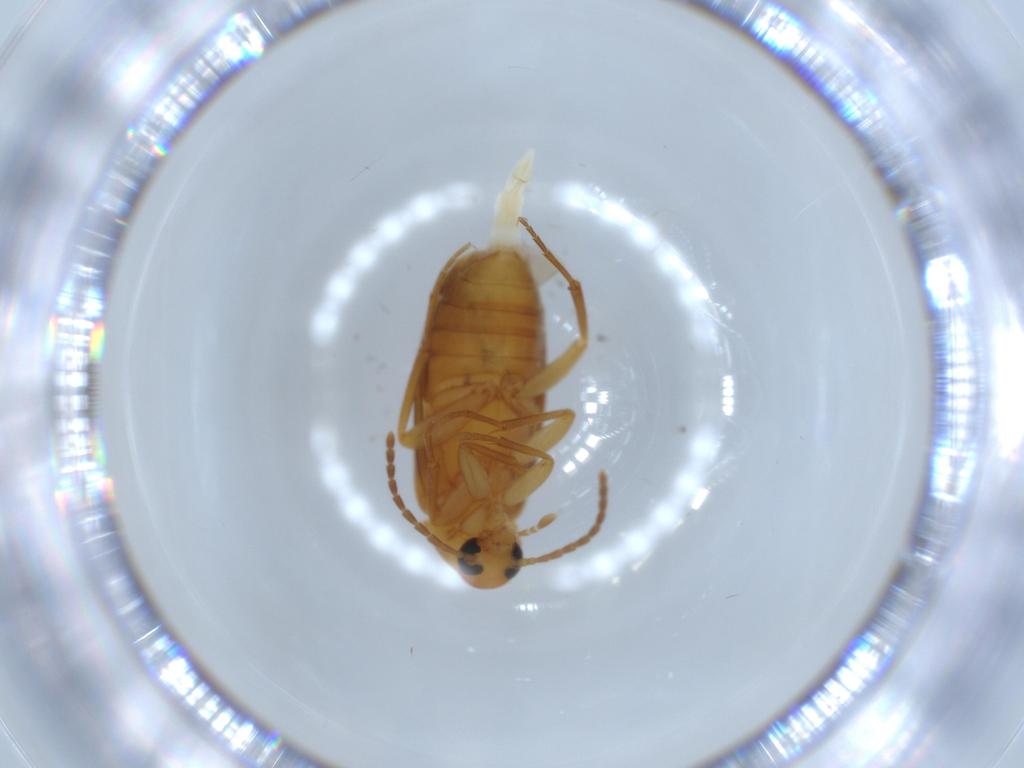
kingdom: Animalia
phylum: Arthropoda
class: Insecta
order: Coleoptera
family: Scraptiidae
